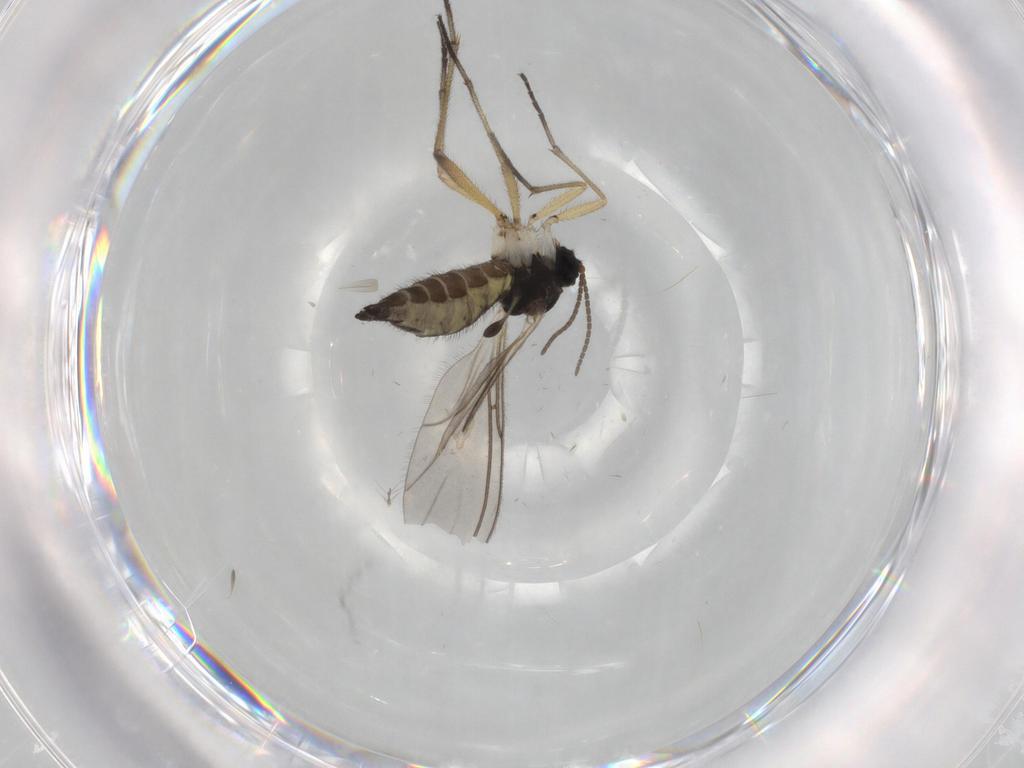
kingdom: Animalia
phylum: Arthropoda
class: Insecta
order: Diptera
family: Sciaridae
